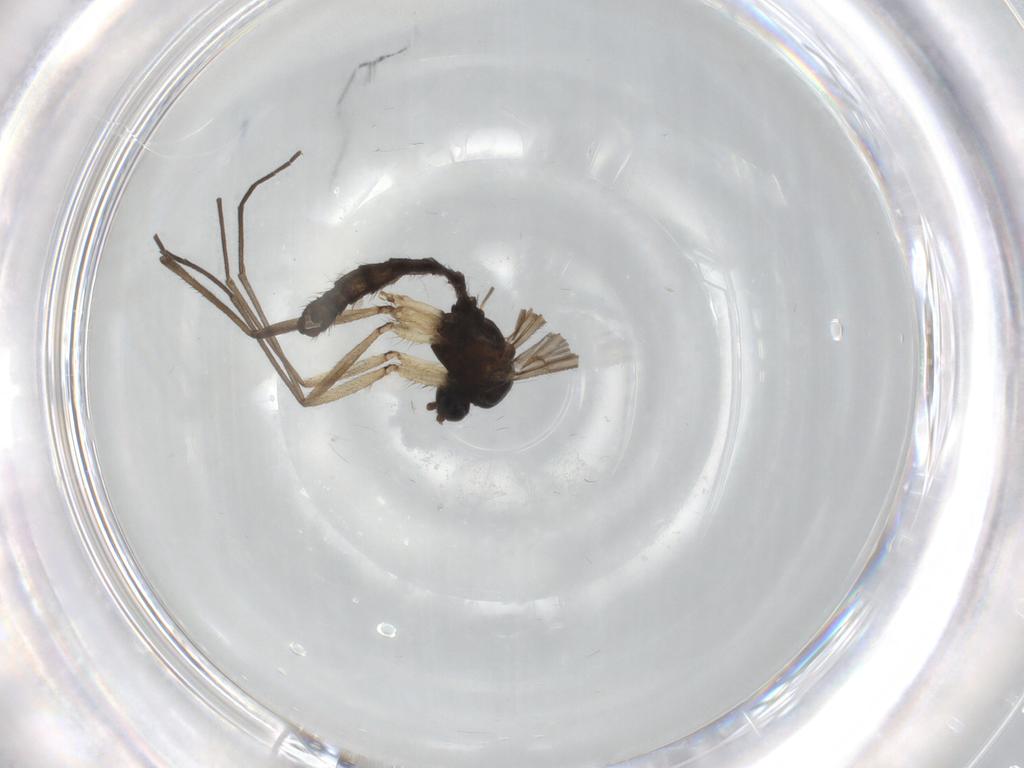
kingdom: Animalia
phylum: Arthropoda
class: Insecta
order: Diptera
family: Sciaridae
